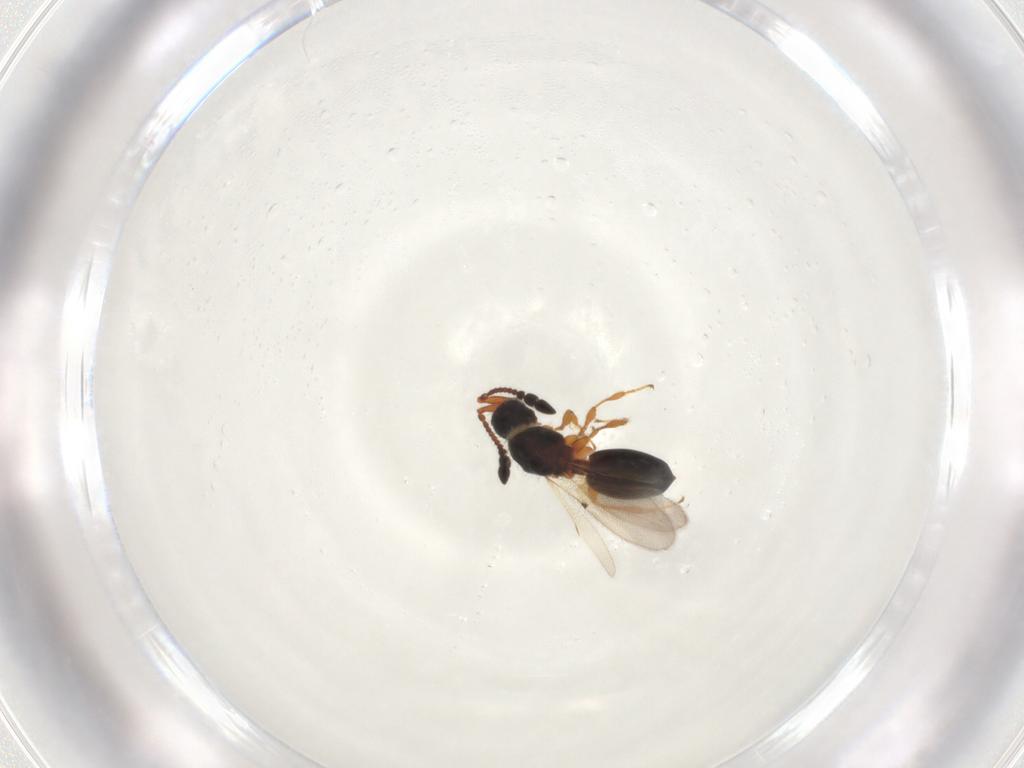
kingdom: Animalia
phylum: Arthropoda
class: Insecta
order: Hymenoptera
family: Diapriidae
